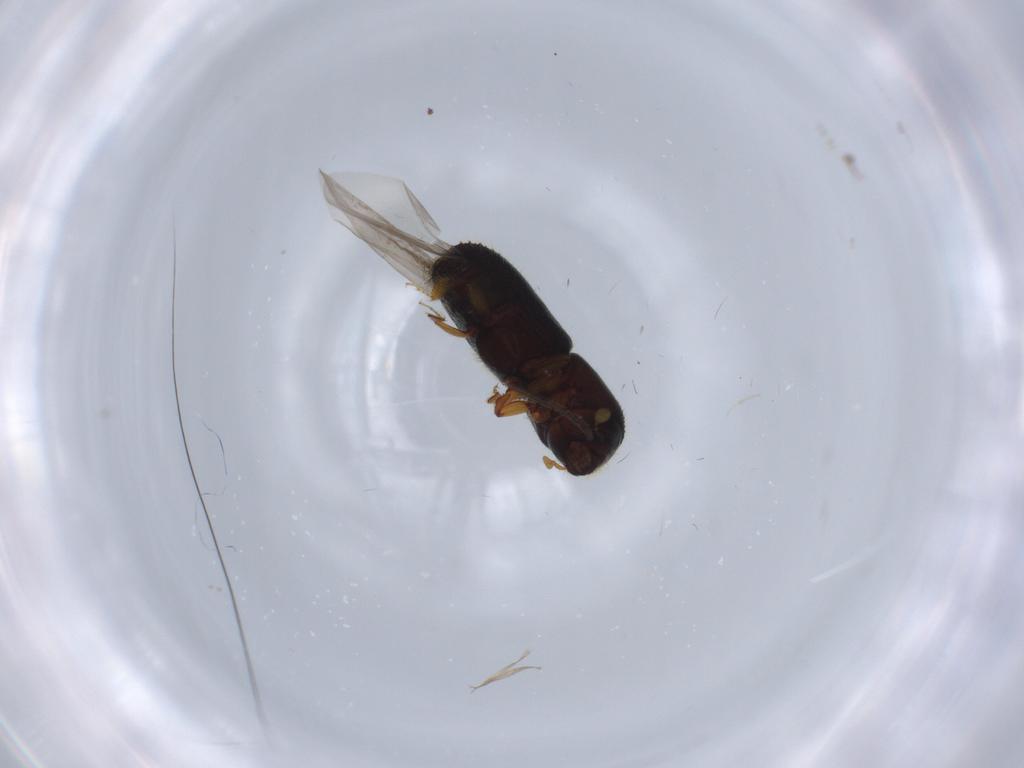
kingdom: Animalia
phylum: Arthropoda
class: Insecta
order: Coleoptera
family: Curculionidae
